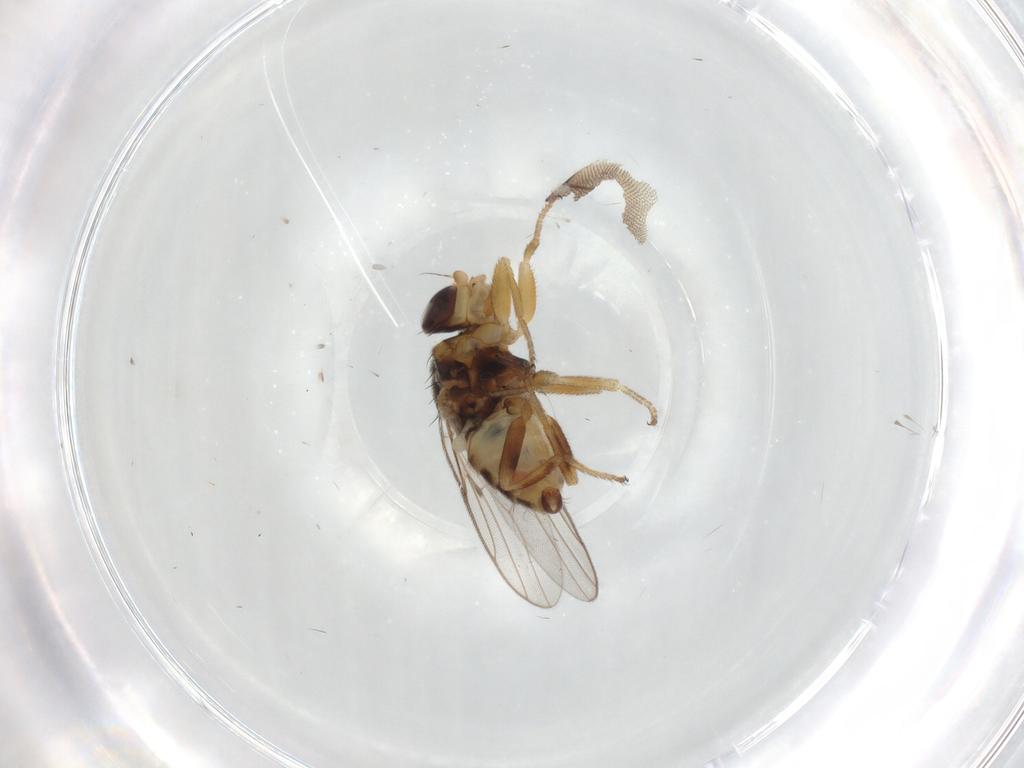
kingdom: Animalia
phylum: Arthropoda
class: Insecta
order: Diptera
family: Chloropidae
